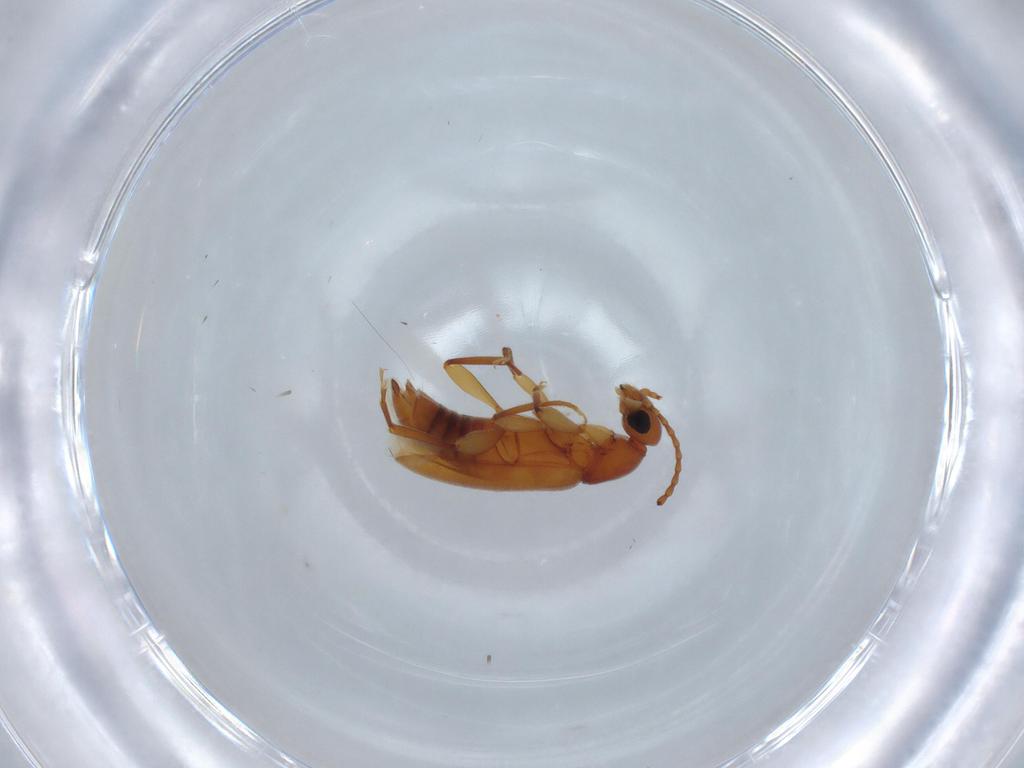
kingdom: Animalia
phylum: Arthropoda
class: Insecta
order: Coleoptera
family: Anthicidae
